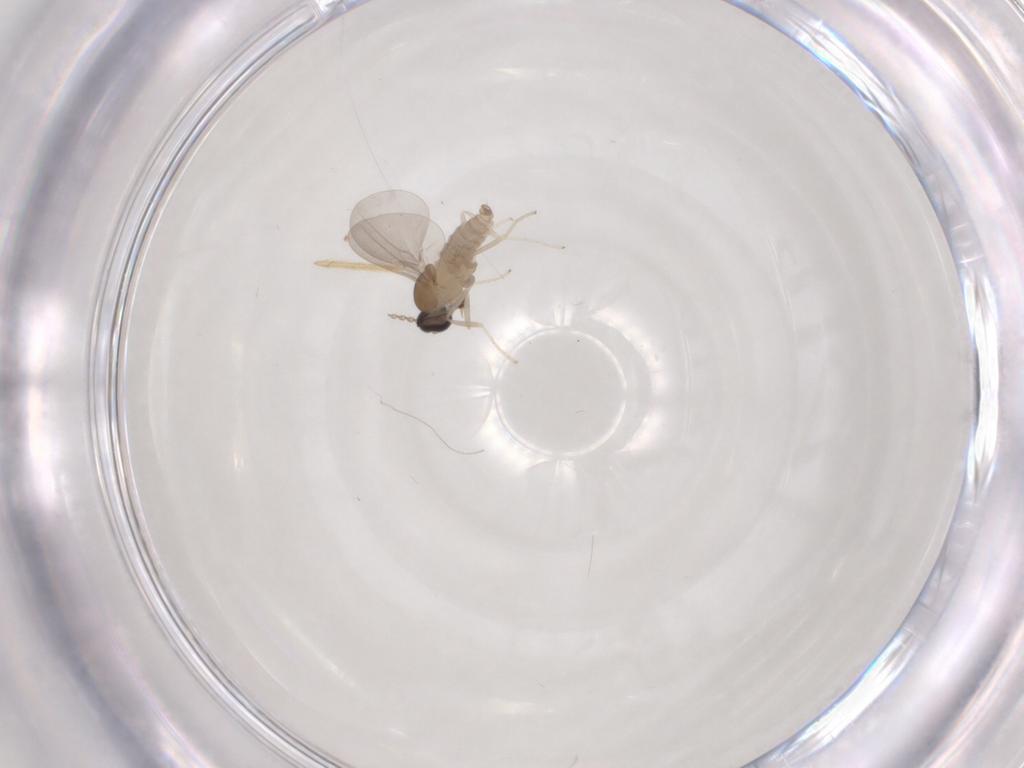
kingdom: Animalia
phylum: Arthropoda
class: Insecta
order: Diptera
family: Cecidomyiidae
